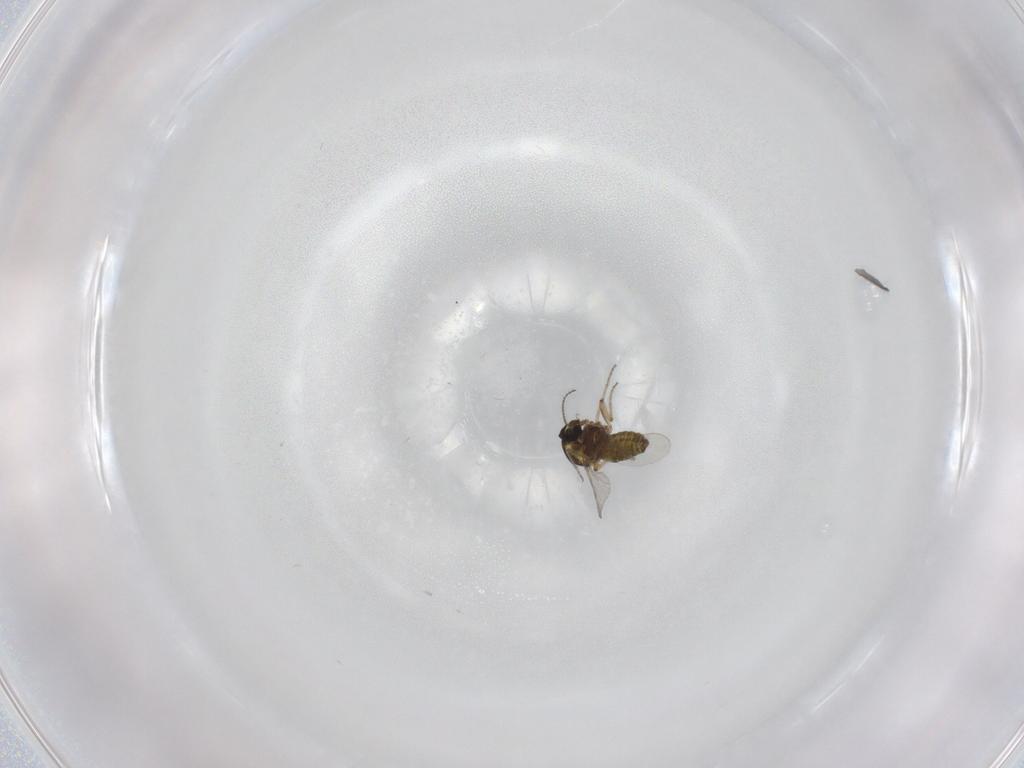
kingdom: Animalia
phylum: Arthropoda
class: Insecta
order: Diptera
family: Ceratopogonidae
